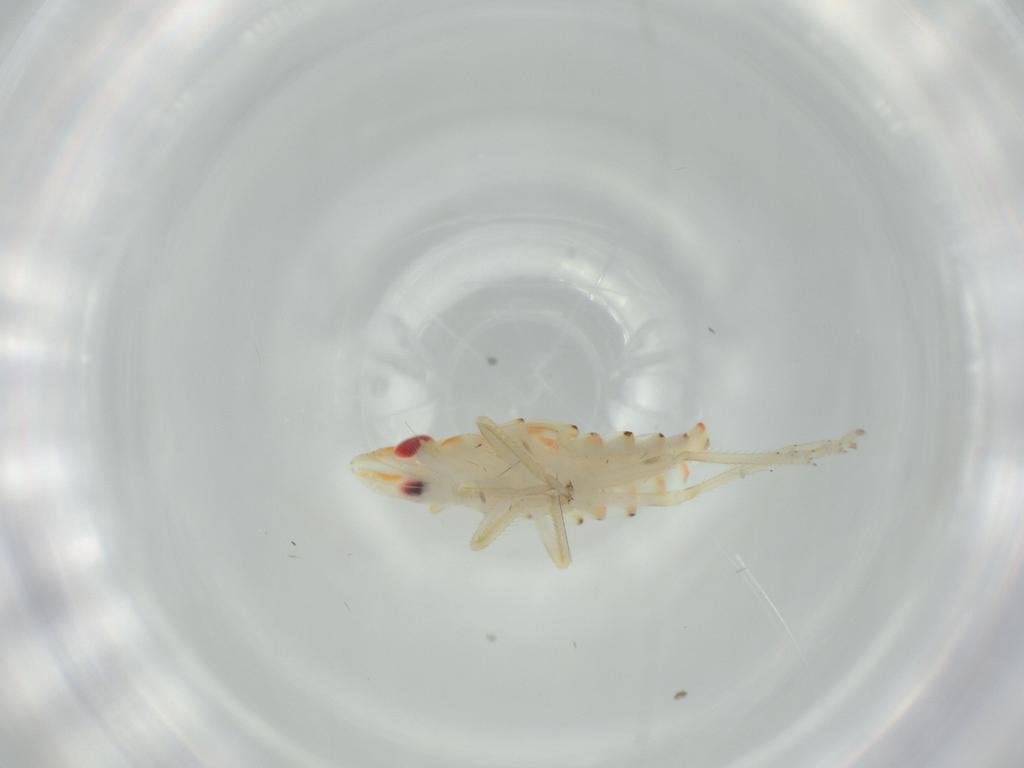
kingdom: Animalia
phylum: Arthropoda
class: Insecta
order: Hemiptera
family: Tropiduchidae
